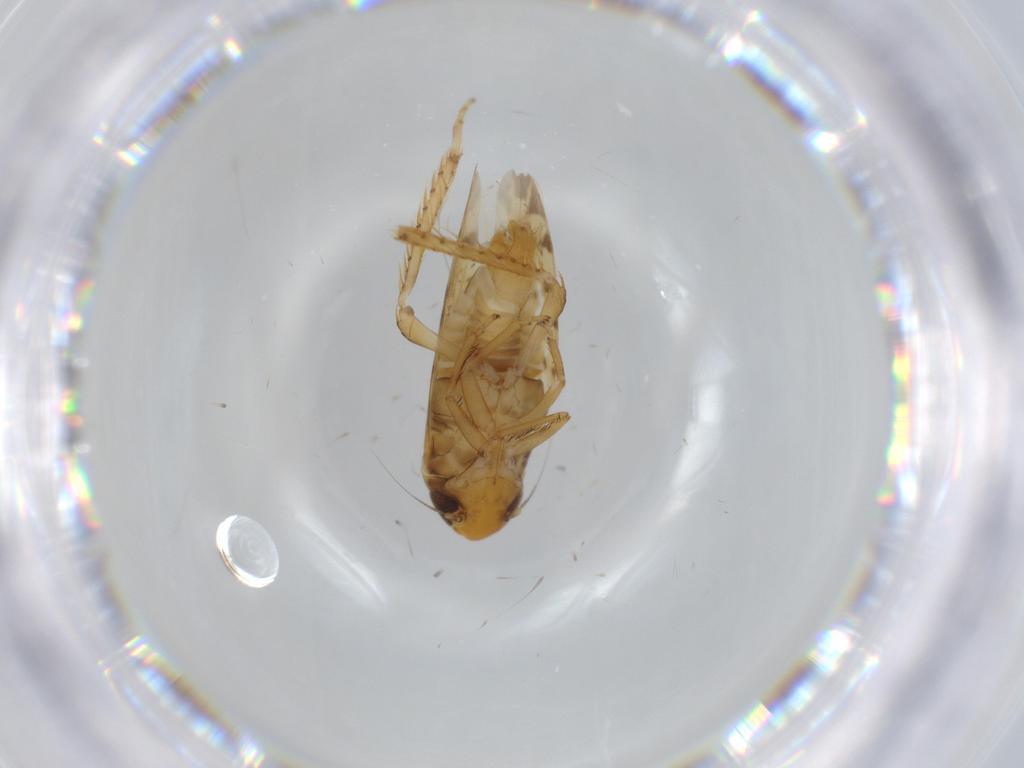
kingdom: Animalia
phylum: Arthropoda
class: Insecta
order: Hemiptera
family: Cicadellidae
